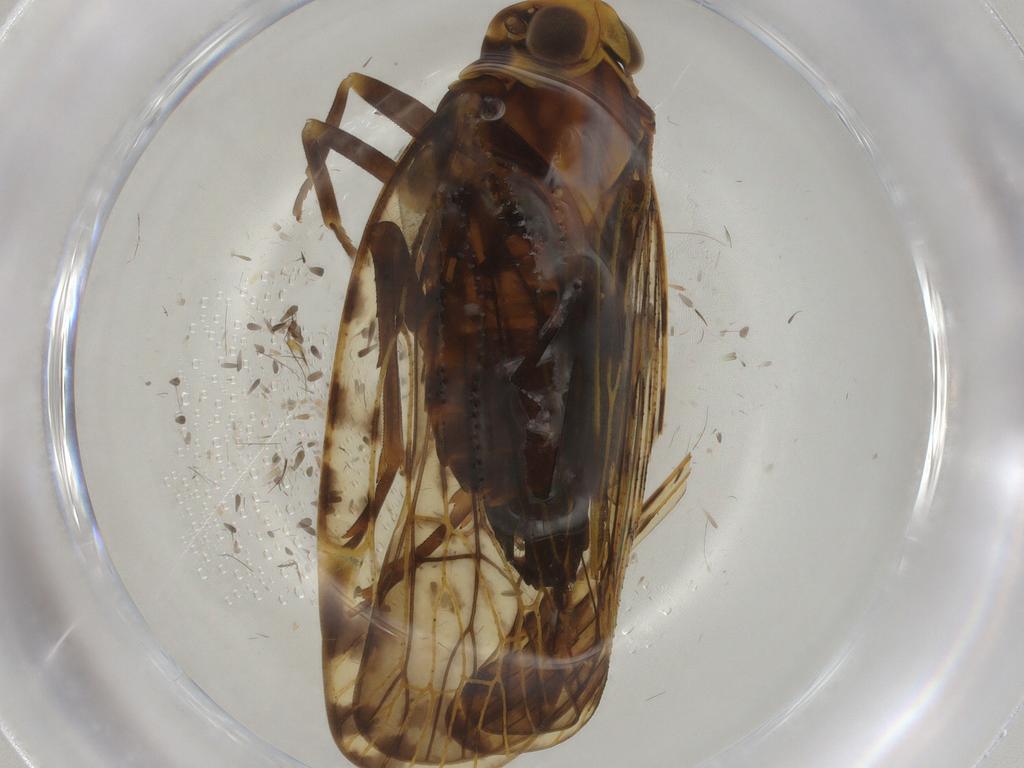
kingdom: Animalia
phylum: Arthropoda
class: Insecta
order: Hemiptera
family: Cixiidae
